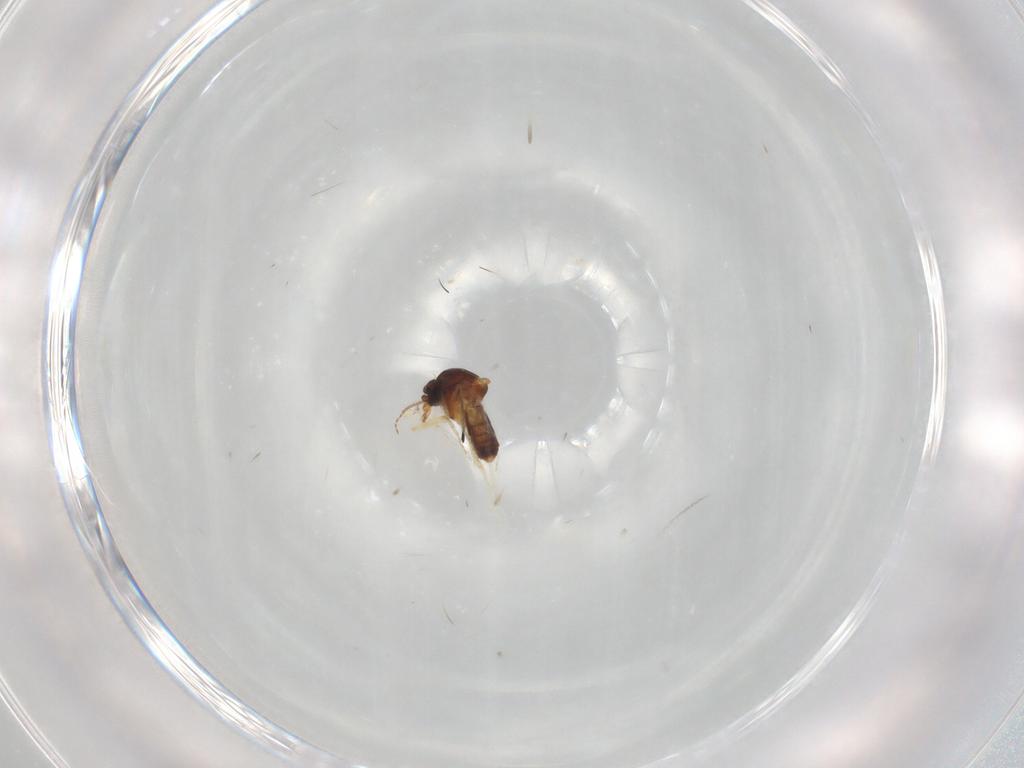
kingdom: Animalia
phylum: Arthropoda
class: Insecta
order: Diptera
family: Ceratopogonidae
